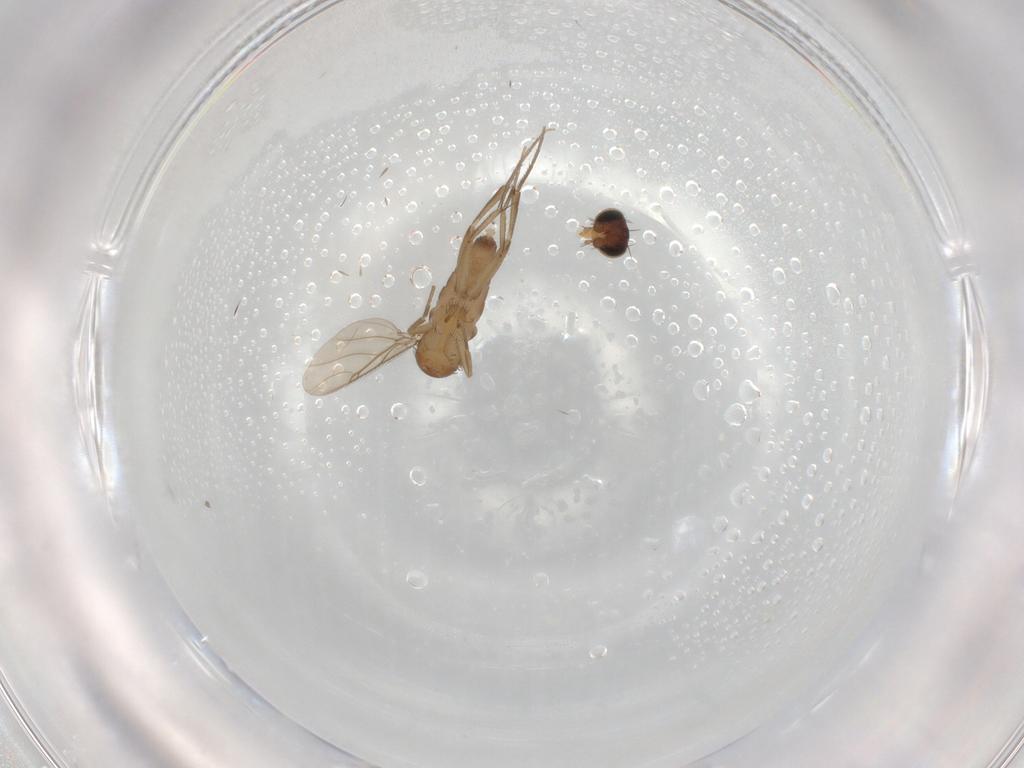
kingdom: Animalia
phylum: Arthropoda
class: Insecta
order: Diptera
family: Phoridae
